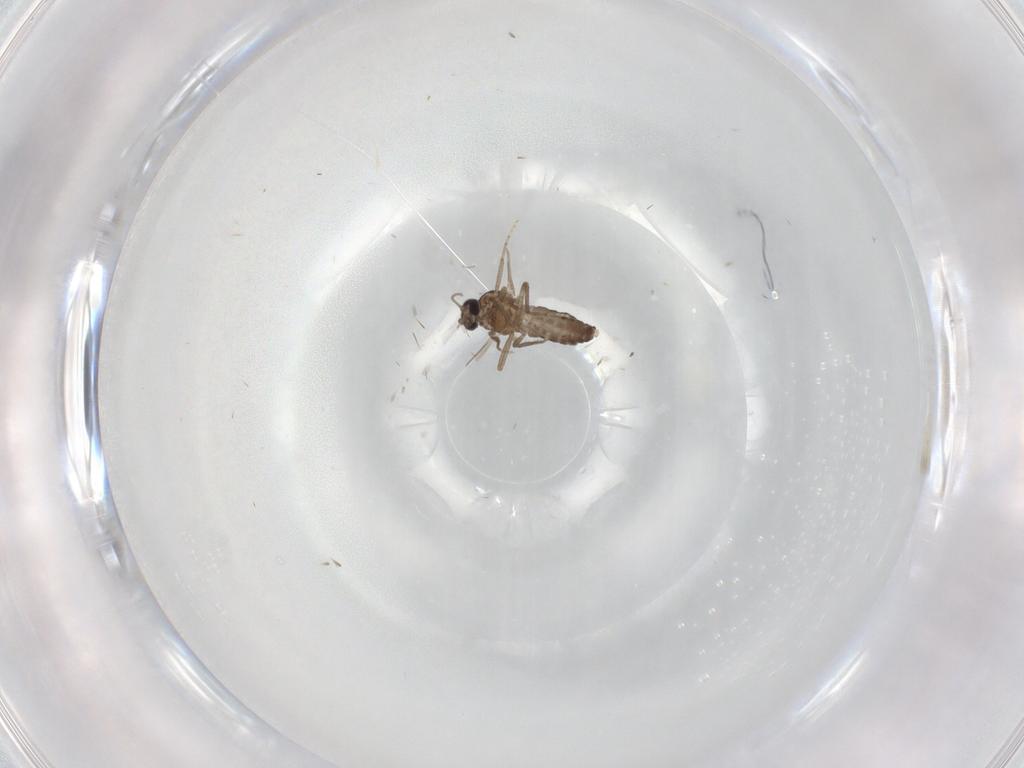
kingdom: Animalia
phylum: Arthropoda
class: Insecta
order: Diptera
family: Ceratopogonidae
